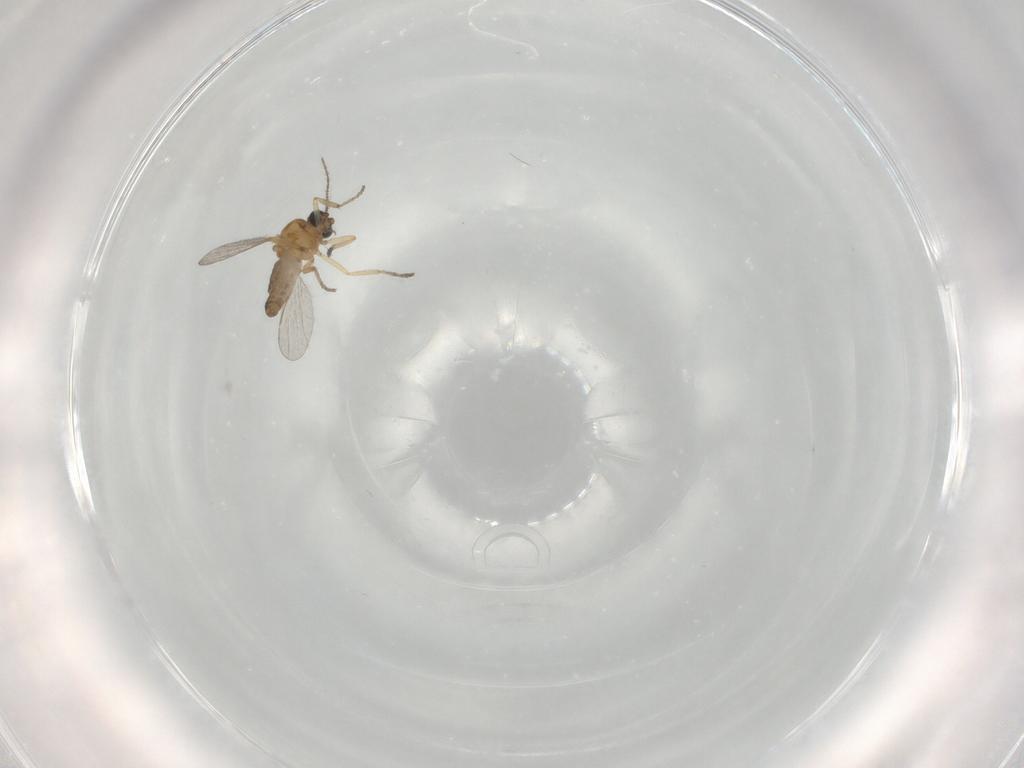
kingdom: Animalia
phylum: Arthropoda
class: Insecta
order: Diptera
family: Ceratopogonidae
